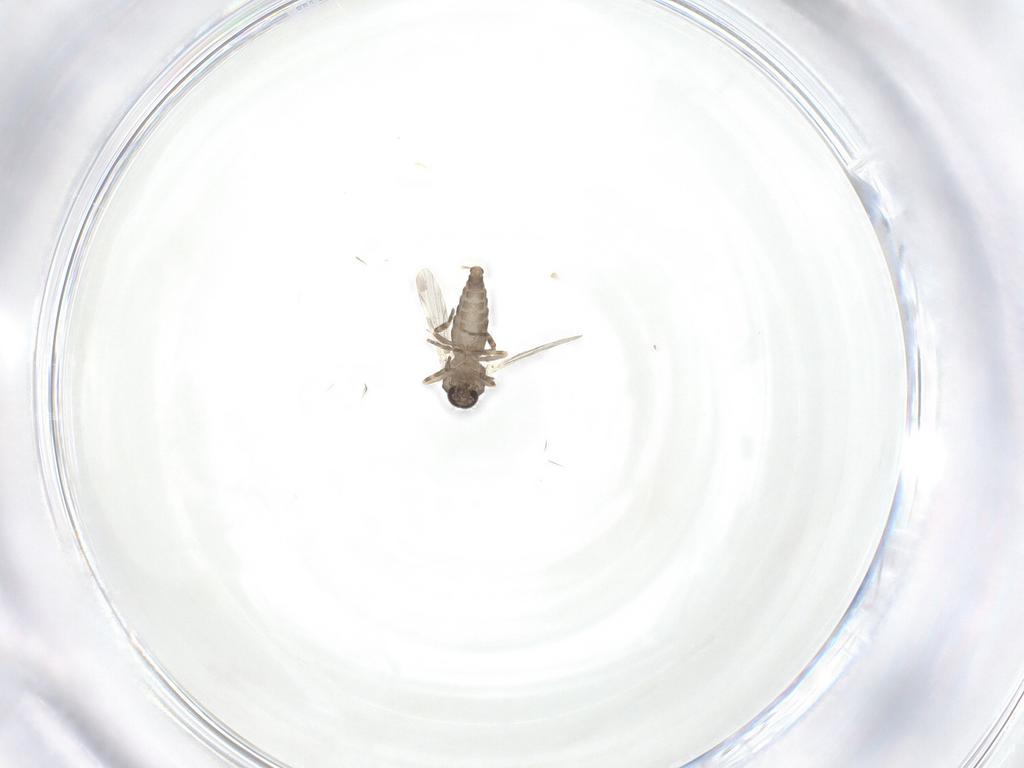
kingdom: Animalia
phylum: Arthropoda
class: Insecta
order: Diptera
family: Ceratopogonidae
